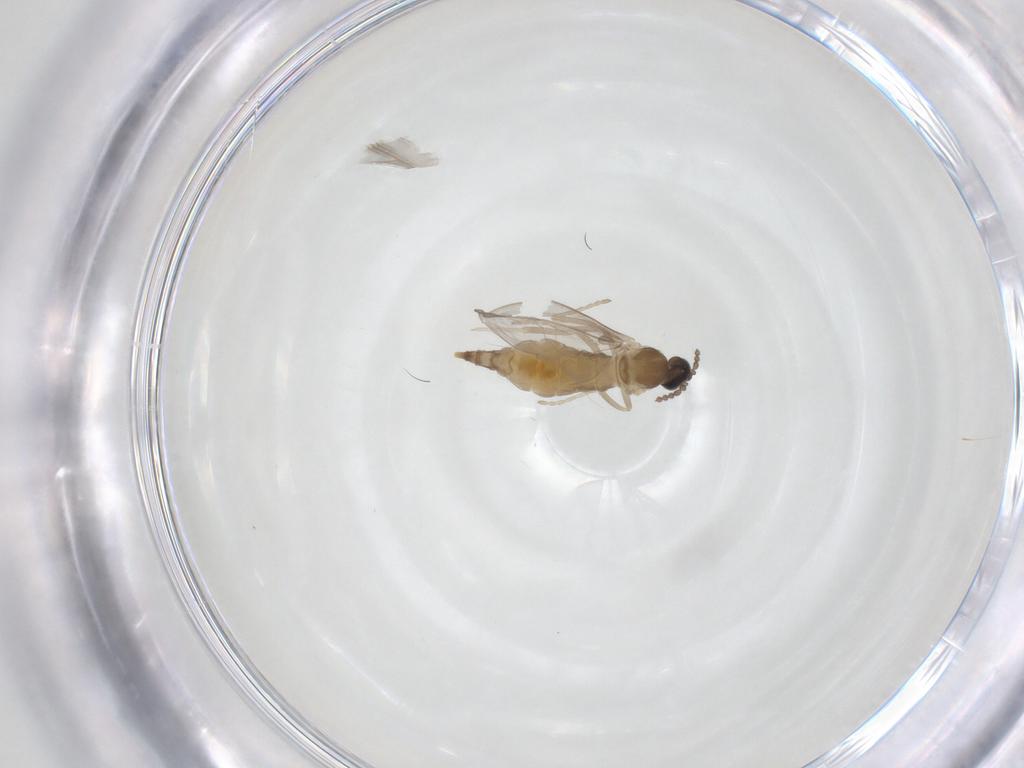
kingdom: Animalia
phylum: Arthropoda
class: Insecta
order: Diptera
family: Cecidomyiidae
